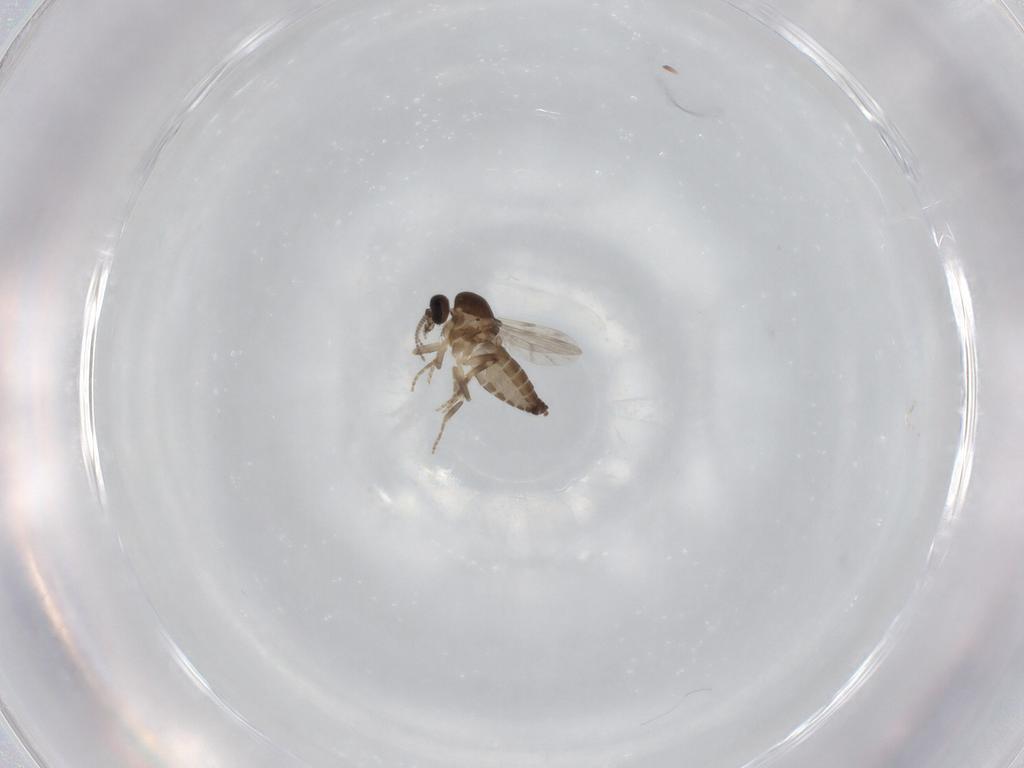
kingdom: Animalia
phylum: Arthropoda
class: Insecta
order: Diptera
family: Ceratopogonidae
